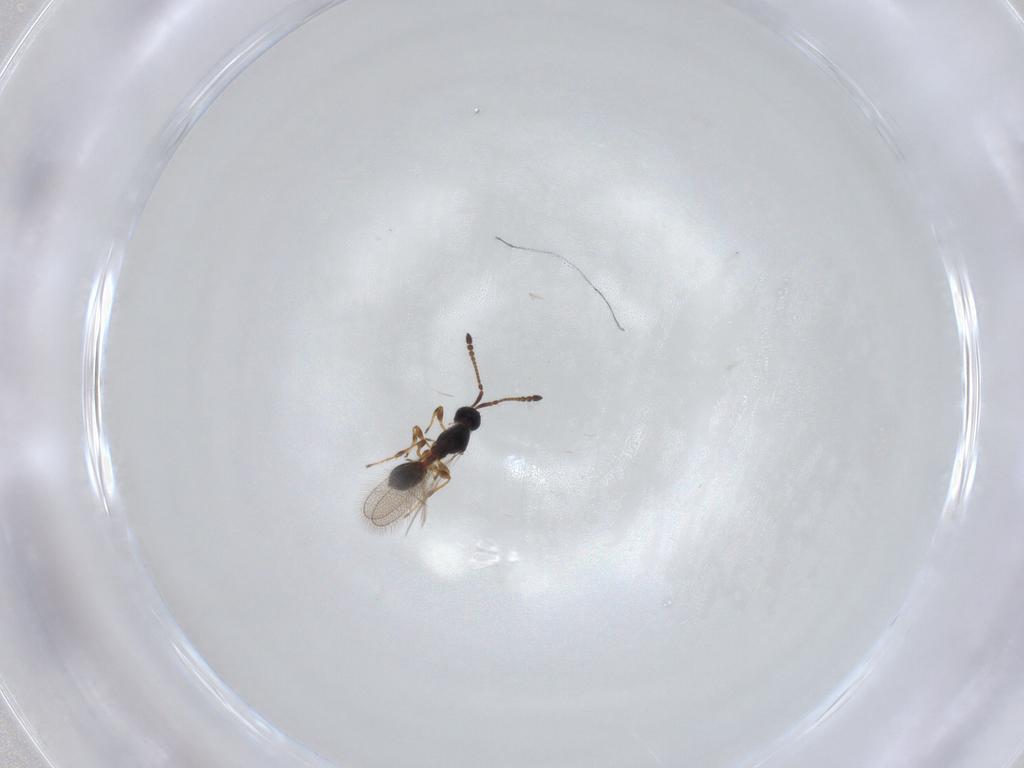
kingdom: Animalia
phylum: Arthropoda
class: Insecta
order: Hymenoptera
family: Diapriidae
